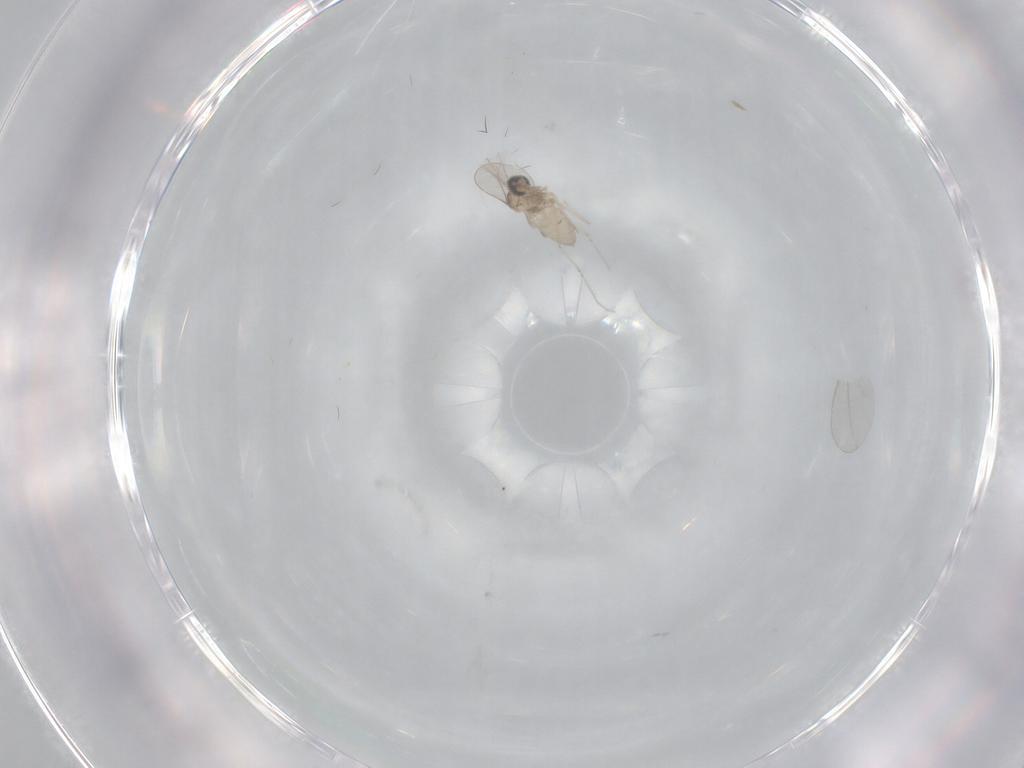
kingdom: Animalia
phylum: Arthropoda
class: Insecta
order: Diptera
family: Cecidomyiidae
